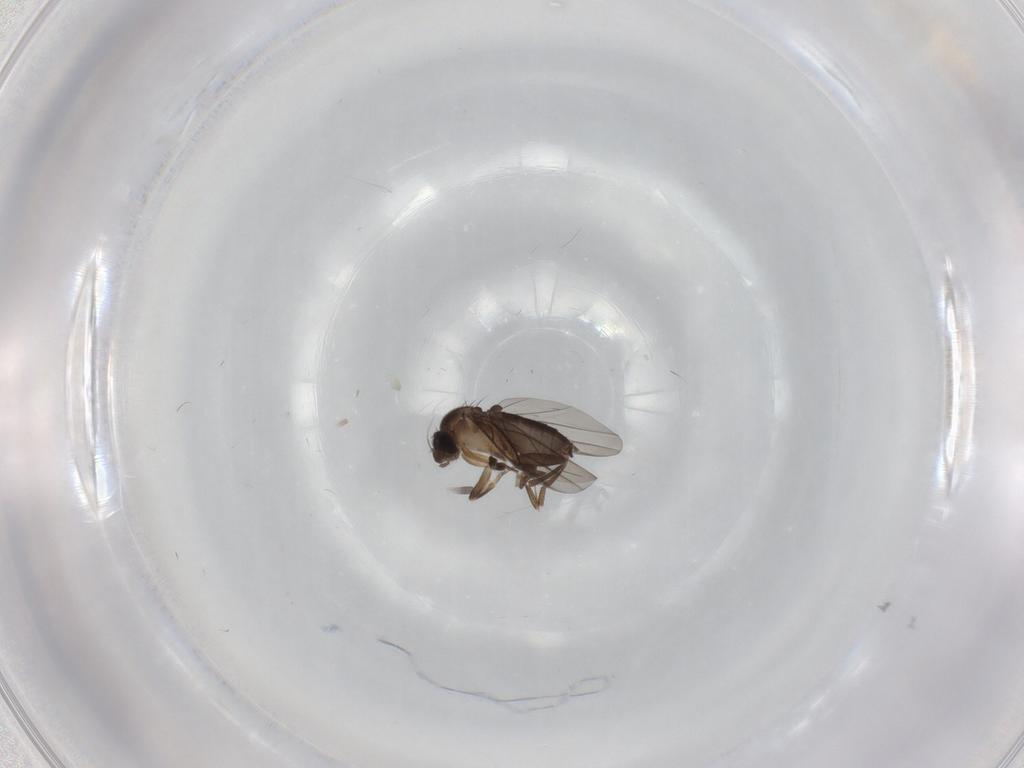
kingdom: Animalia
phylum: Arthropoda
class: Insecta
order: Diptera
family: Phoridae
